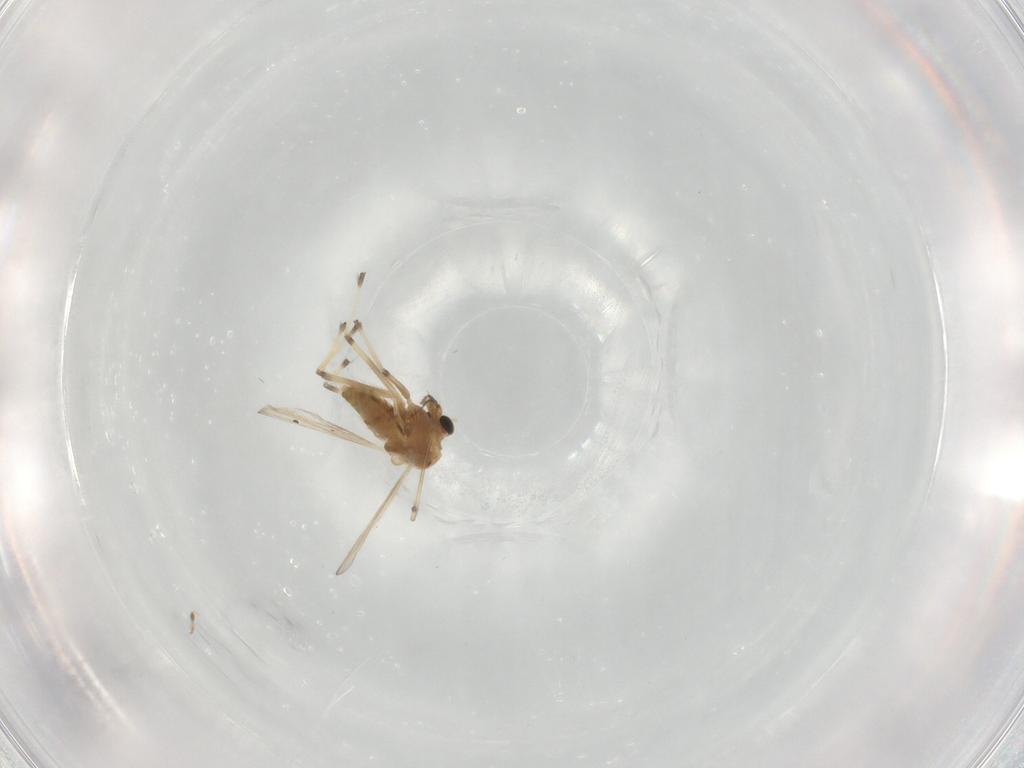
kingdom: Animalia
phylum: Arthropoda
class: Insecta
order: Diptera
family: Chironomidae
